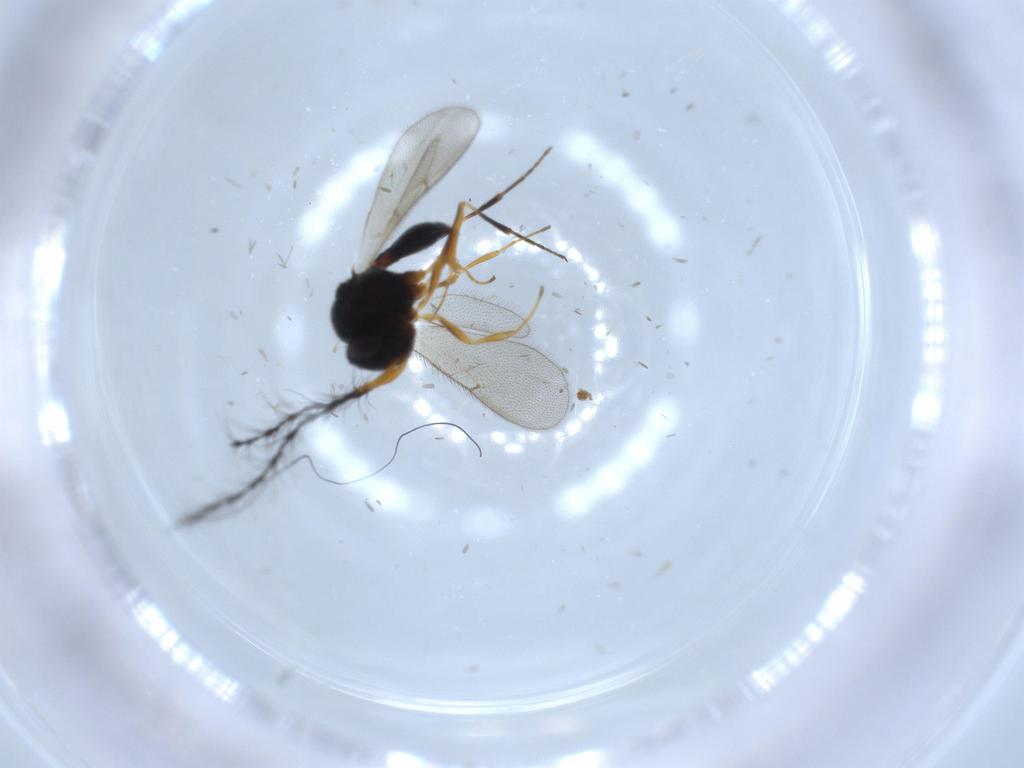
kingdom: Animalia
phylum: Arthropoda
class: Insecta
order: Hymenoptera
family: Scelionidae
